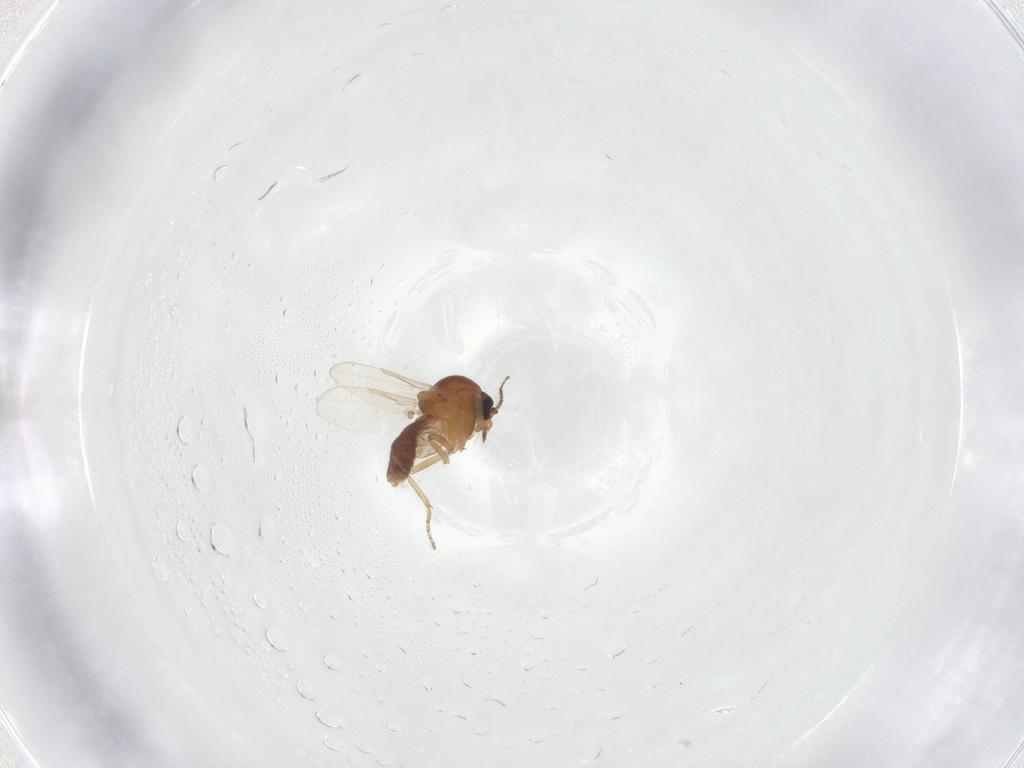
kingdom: Animalia
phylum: Arthropoda
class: Insecta
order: Diptera
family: Ceratopogonidae
